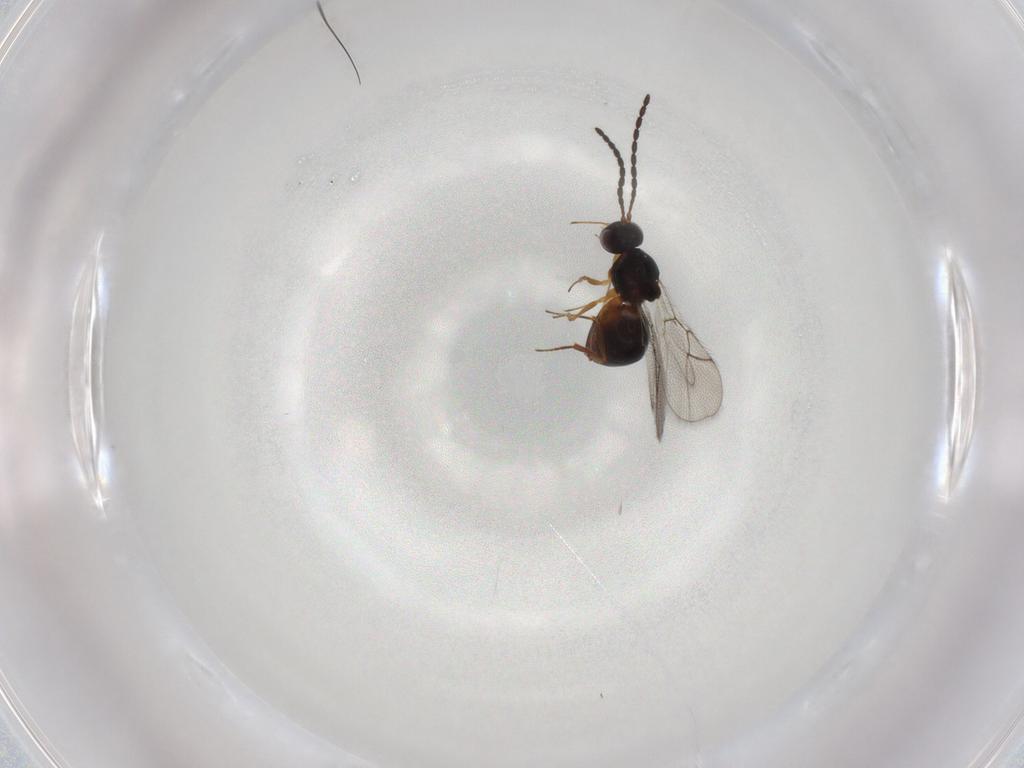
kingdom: Animalia
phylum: Arthropoda
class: Insecta
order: Hymenoptera
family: Figitidae
